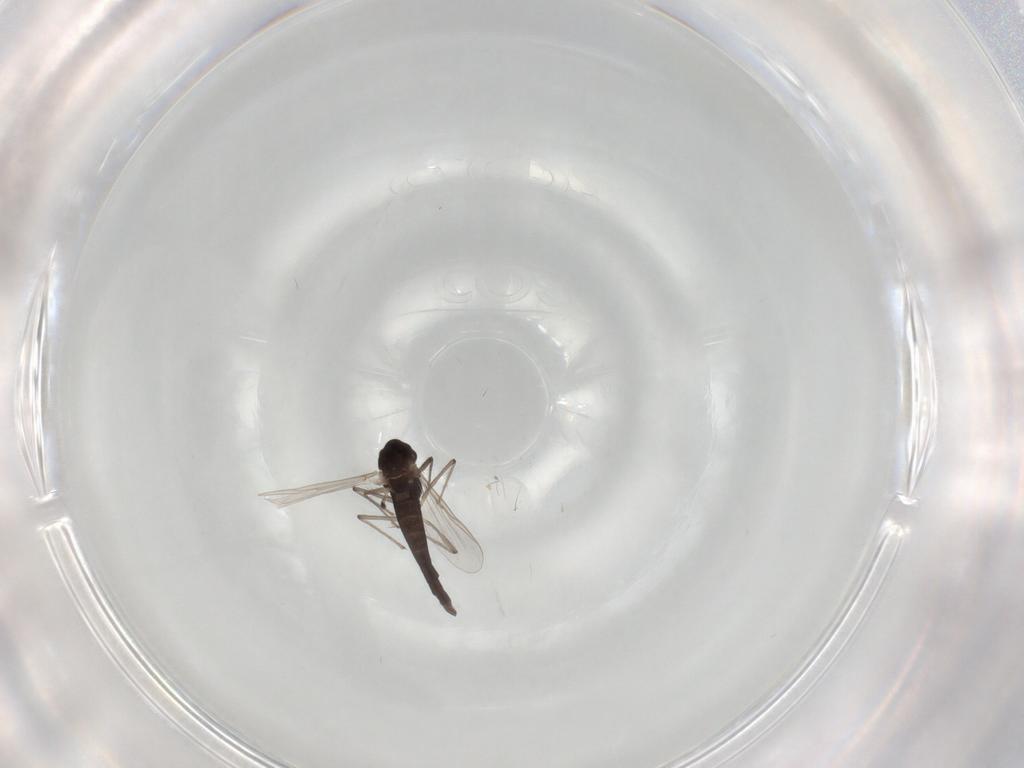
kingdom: Animalia
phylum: Arthropoda
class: Insecta
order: Diptera
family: Chironomidae
